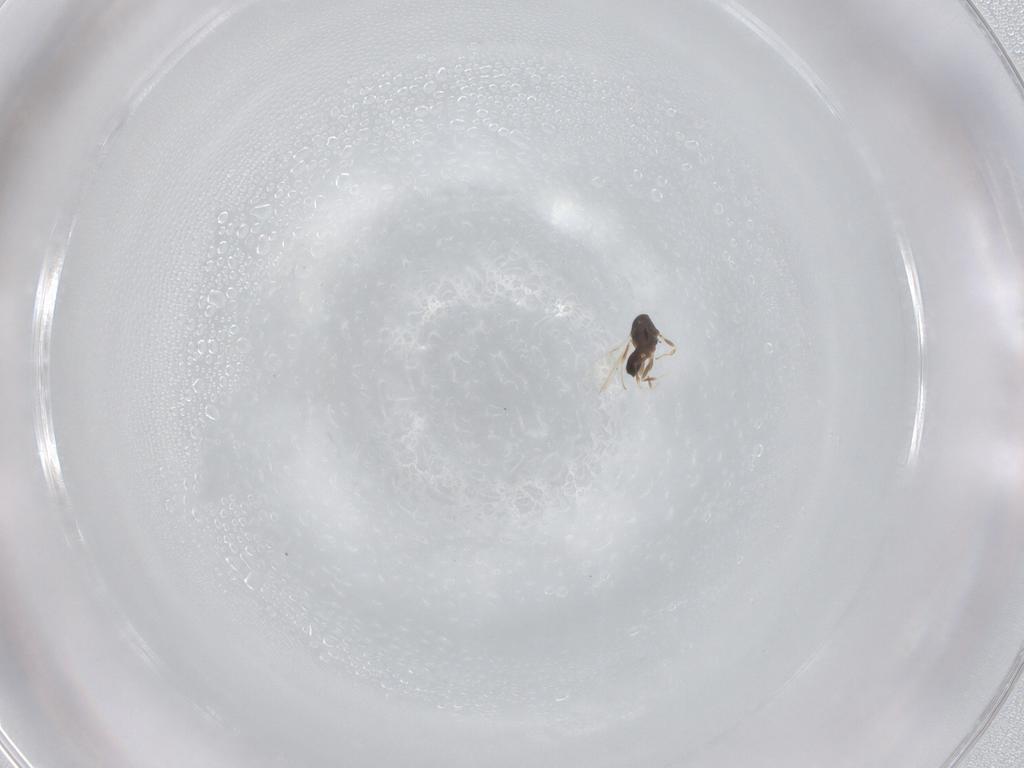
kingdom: Animalia
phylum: Arthropoda
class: Insecta
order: Hymenoptera
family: Scelionidae
